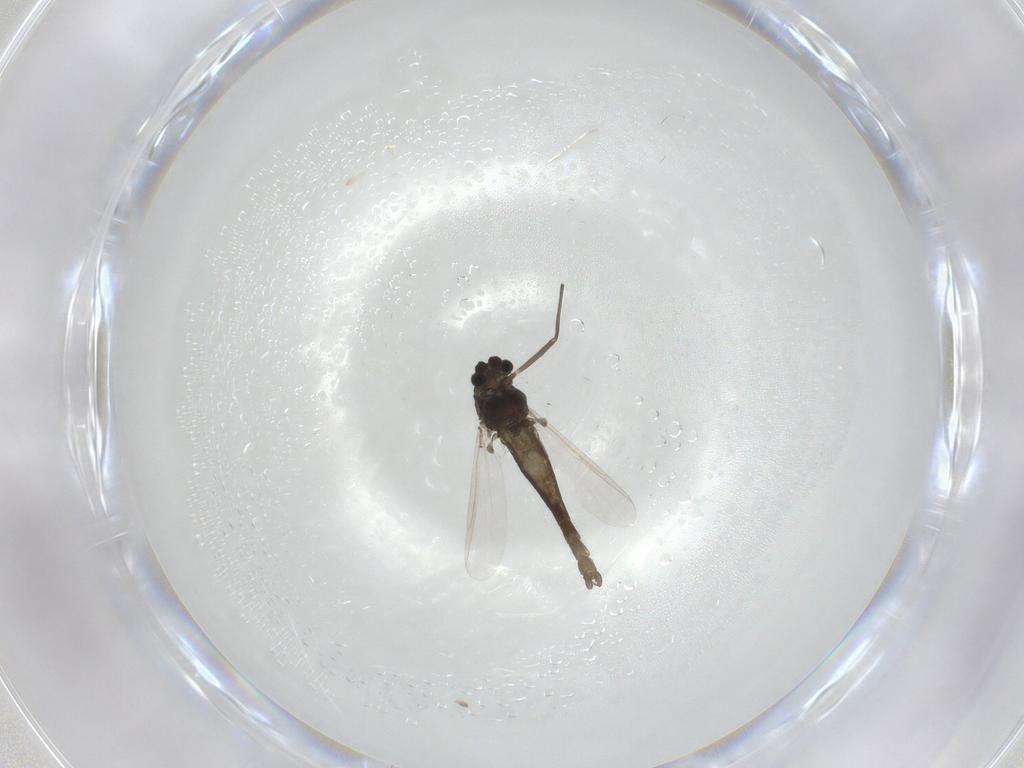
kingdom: Animalia
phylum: Arthropoda
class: Insecta
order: Diptera
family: Chironomidae
